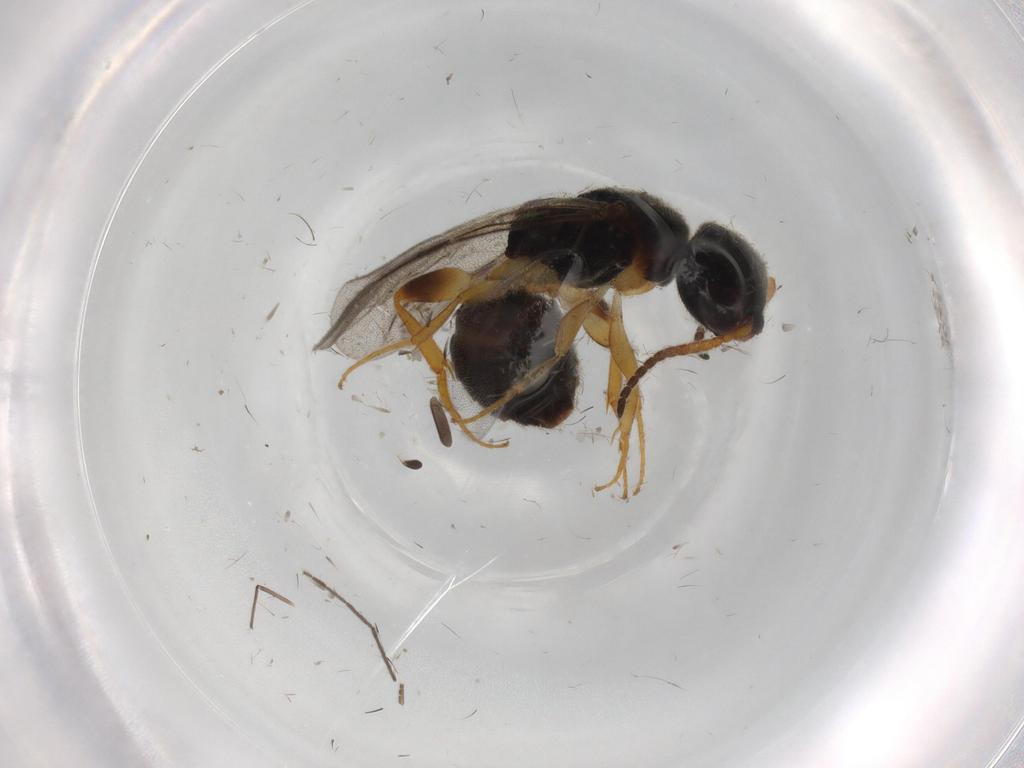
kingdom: Animalia
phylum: Arthropoda
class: Insecta
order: Hymenoptera
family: Bethylidae
